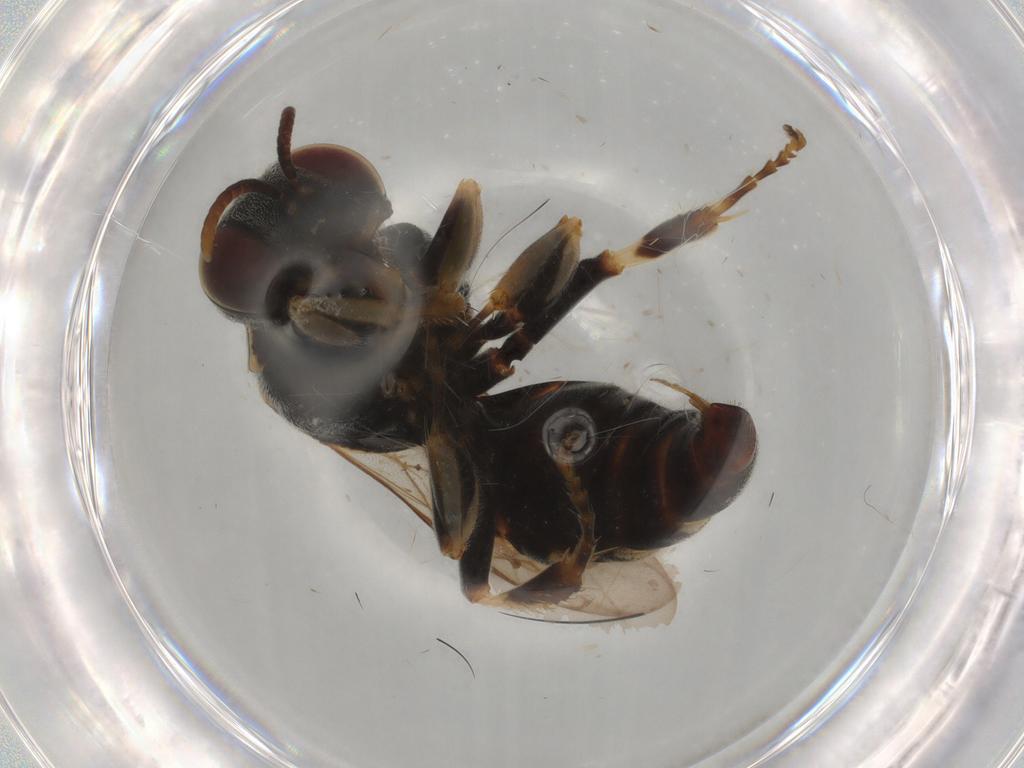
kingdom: Animalia
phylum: Arthropoda
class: Insecta
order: Hymenoptera
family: Crabronidae
